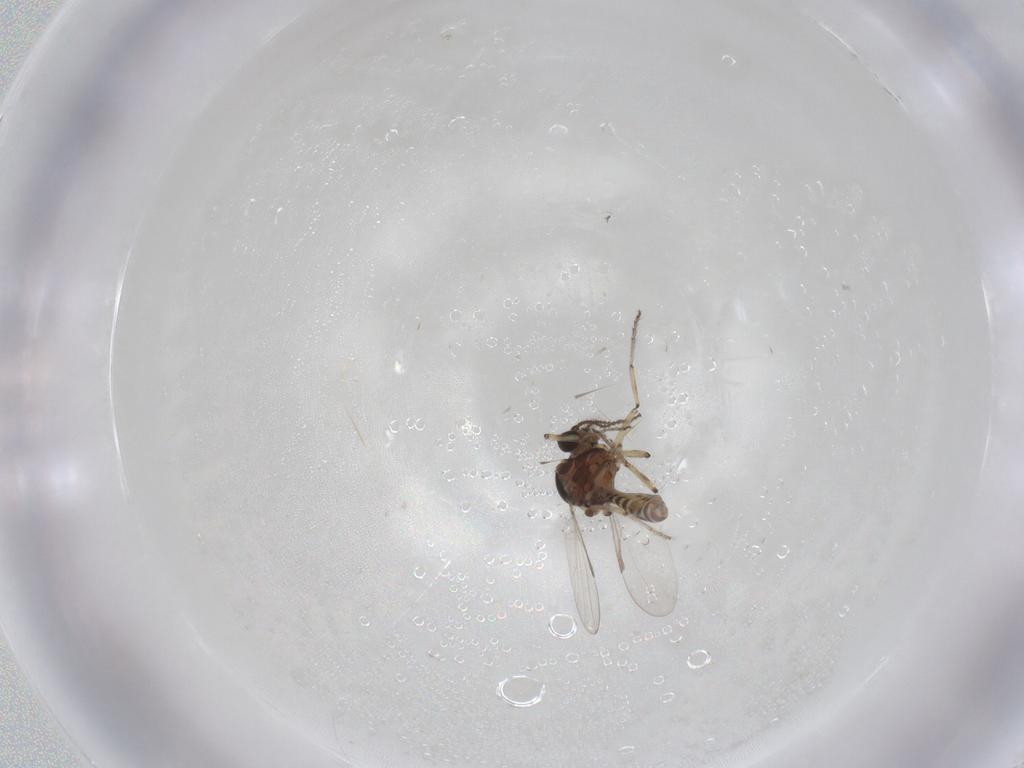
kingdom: Animalia
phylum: Arthropoda
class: Insecta
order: Diptera
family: Ceratopogonidae
